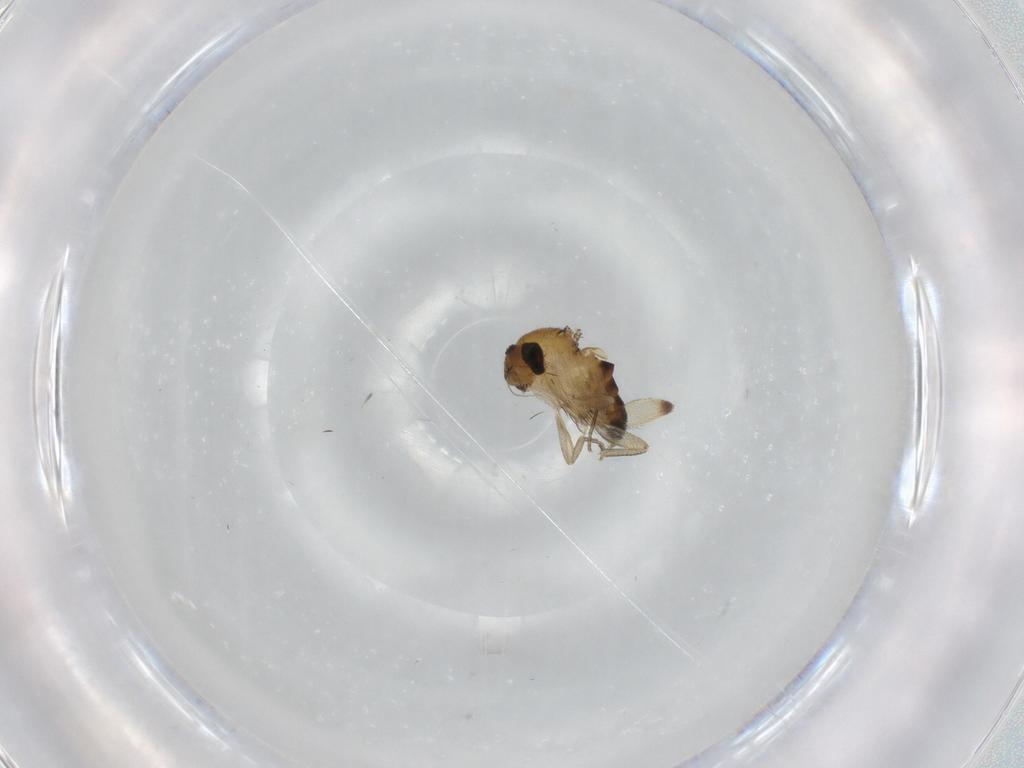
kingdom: Animalia
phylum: Arthropoda
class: Insecta
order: Diptera
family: Phoridae
